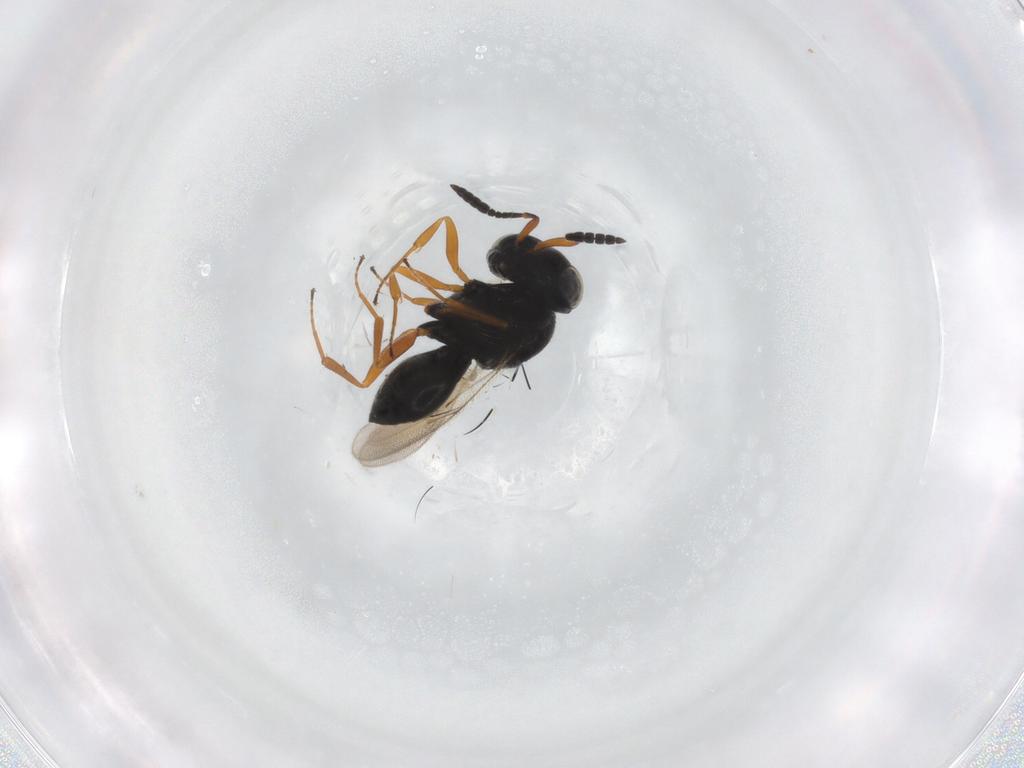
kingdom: Animalia
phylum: Arthropoda
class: Insecta
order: Hymenoptera
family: Scelionidae
